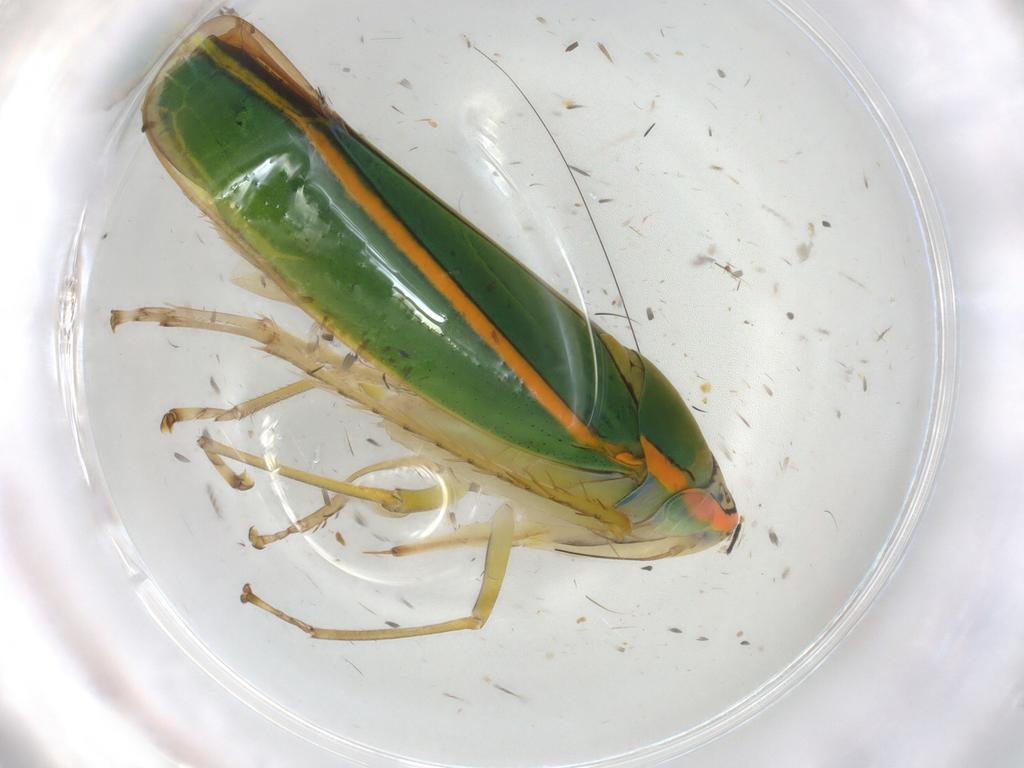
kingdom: Animalia
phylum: Arthropoda
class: Insecta
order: Hemiptera
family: Cicadellidae
